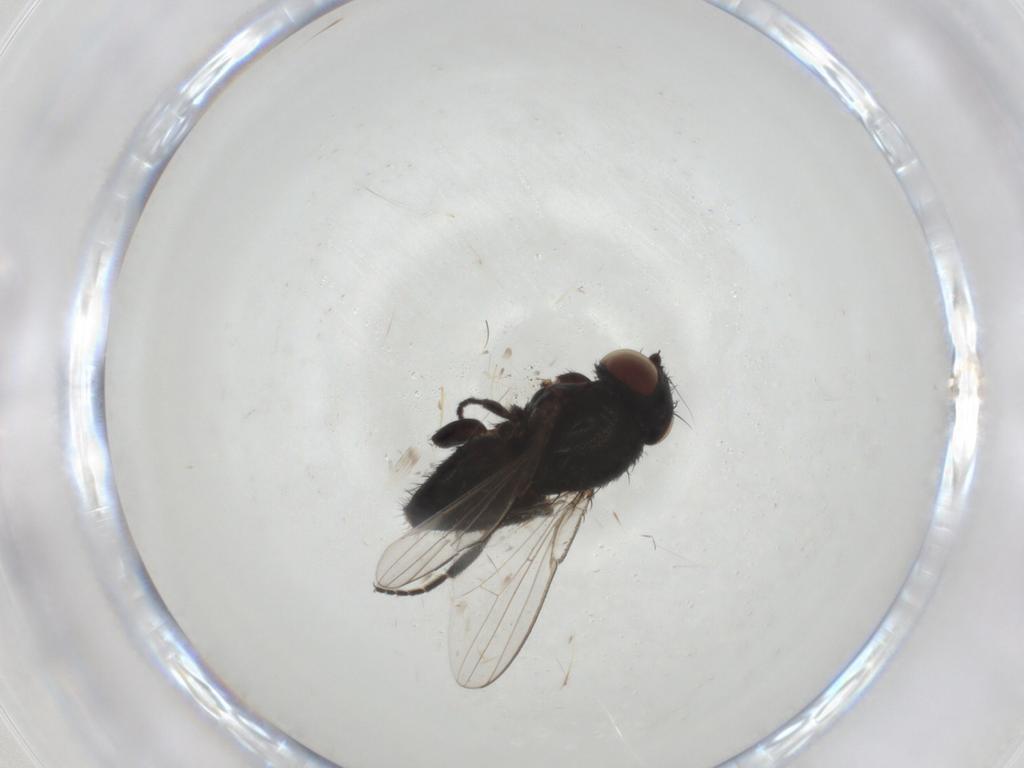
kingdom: Animalia
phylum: Arthropoda
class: Insecta
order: Diptera
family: Milichiidae
